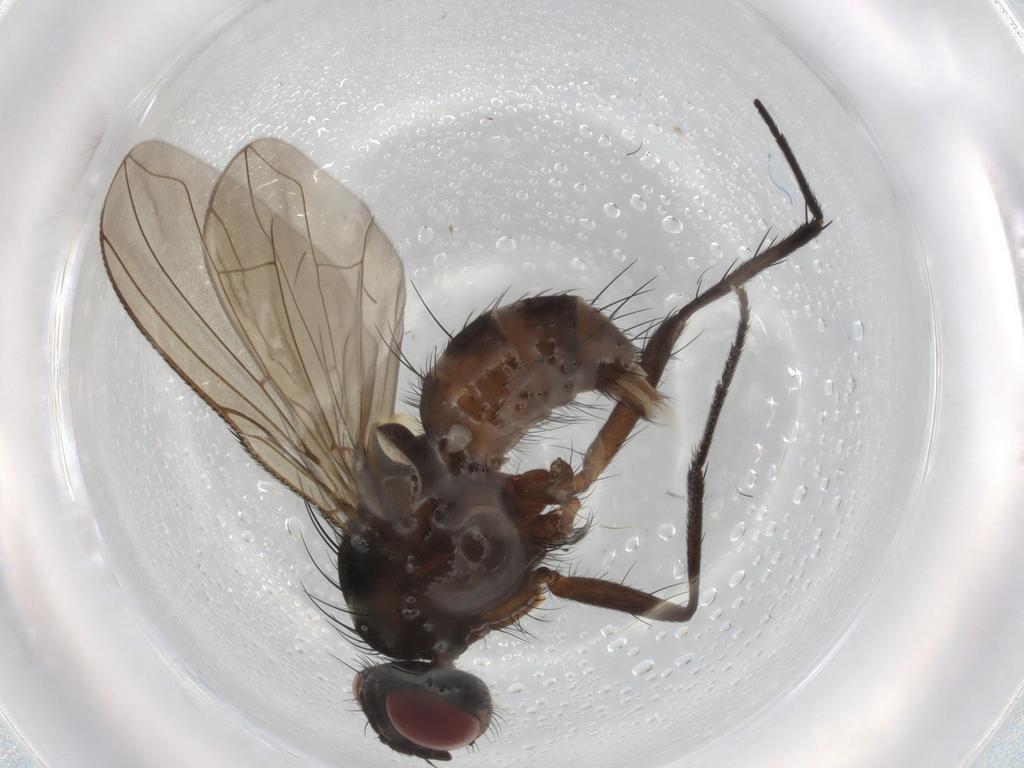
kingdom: Animalia
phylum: Arthropoda
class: Insecta
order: Diptera
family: Muscidae
